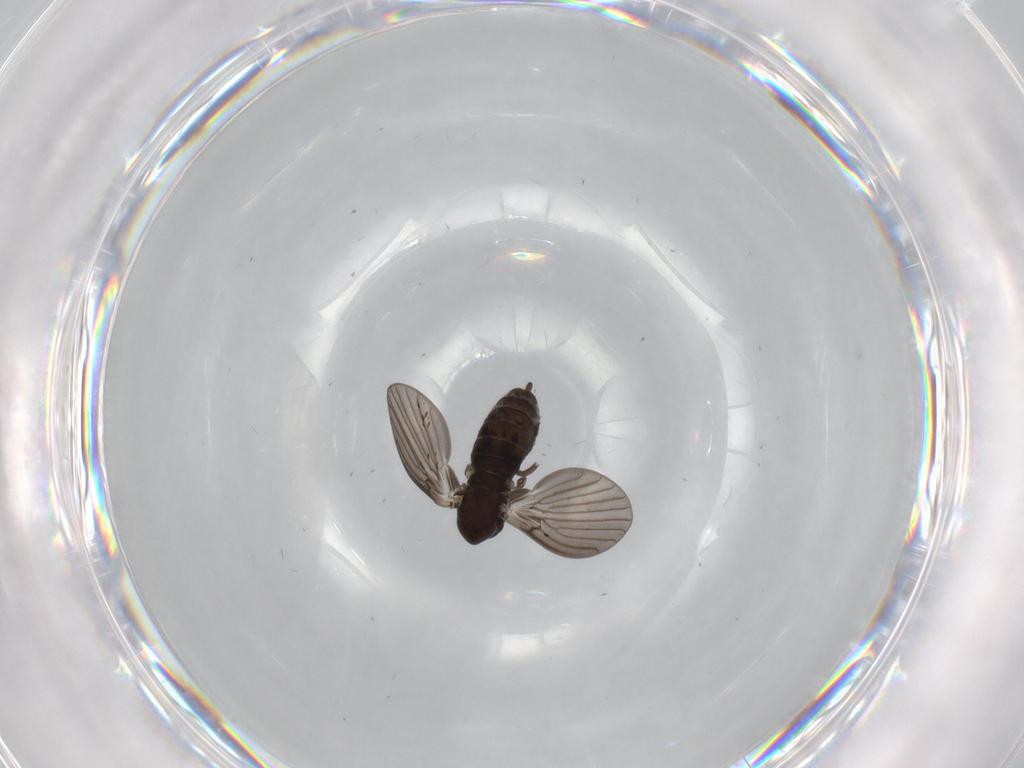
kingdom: Animalia
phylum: Arthropoda
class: Insecta
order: Diptera
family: Psychodidae
